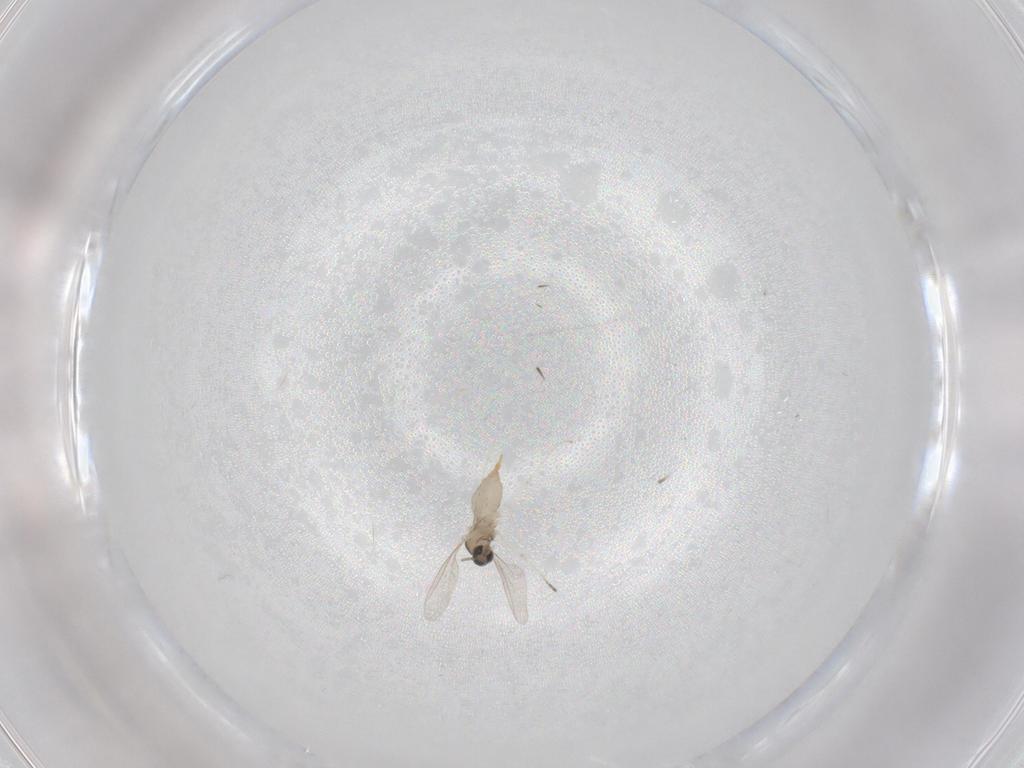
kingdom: Animalia
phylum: Arthropoda
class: Insecta
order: Diptera
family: Cecidomyiidae
